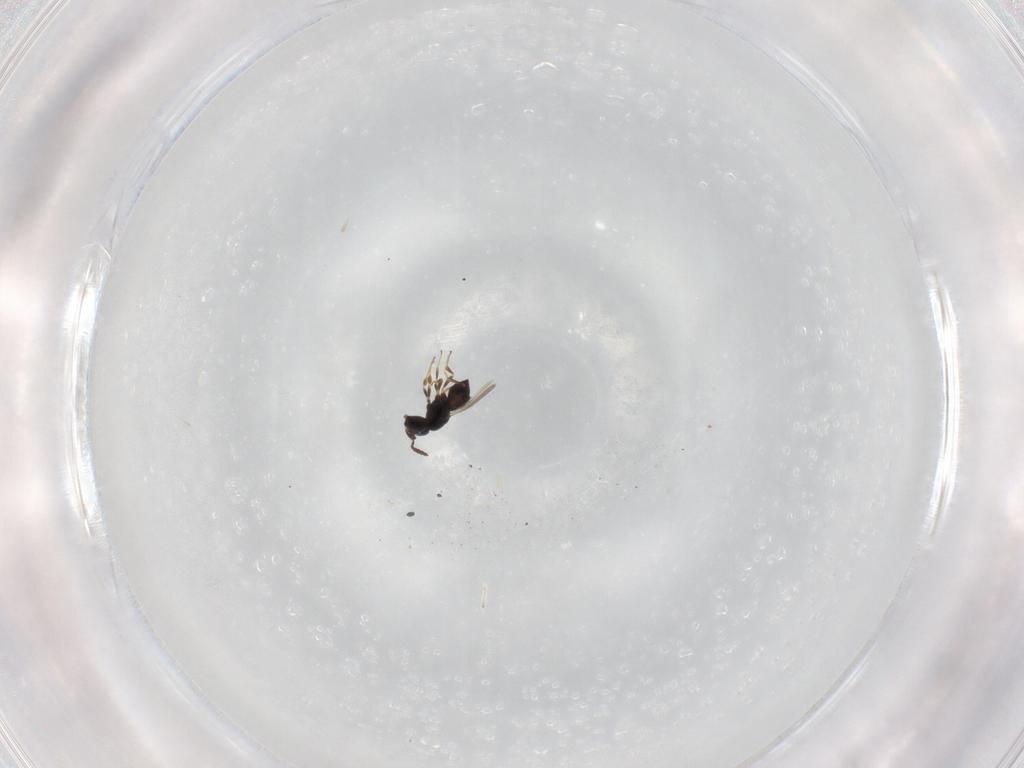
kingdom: Animalia
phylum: Arthropoda
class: Insecta
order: Hymenoptera
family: Scelionidae
